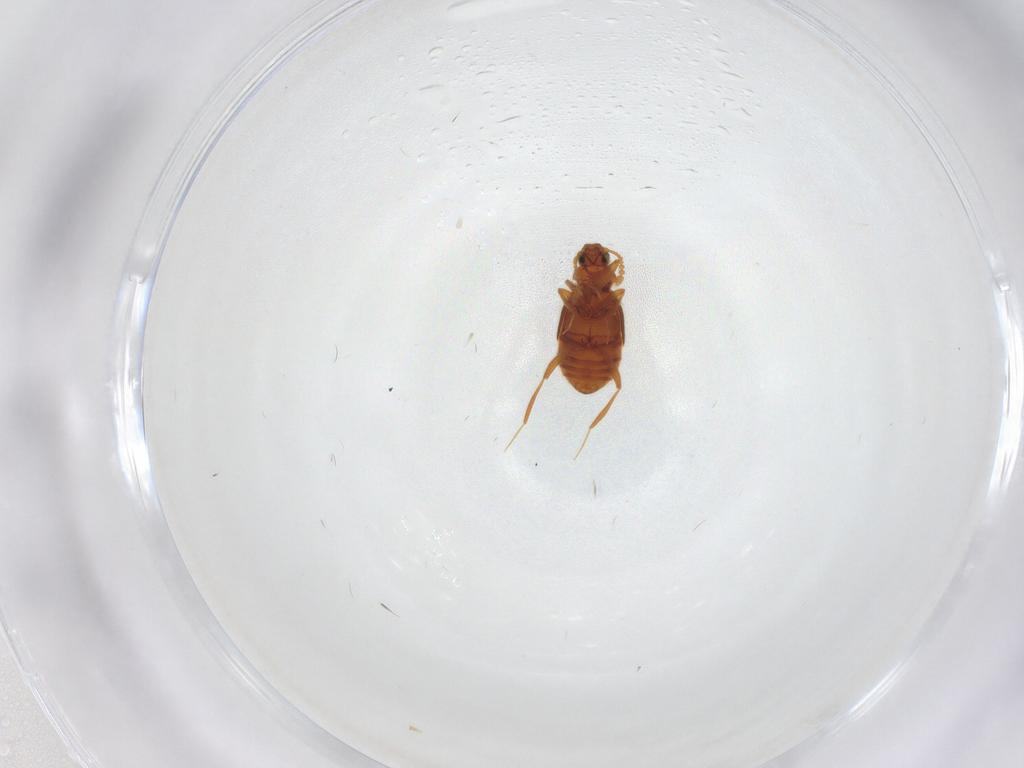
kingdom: Animalia
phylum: Arthropoda
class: Insecta
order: Coleoptera
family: Staphylinidae
